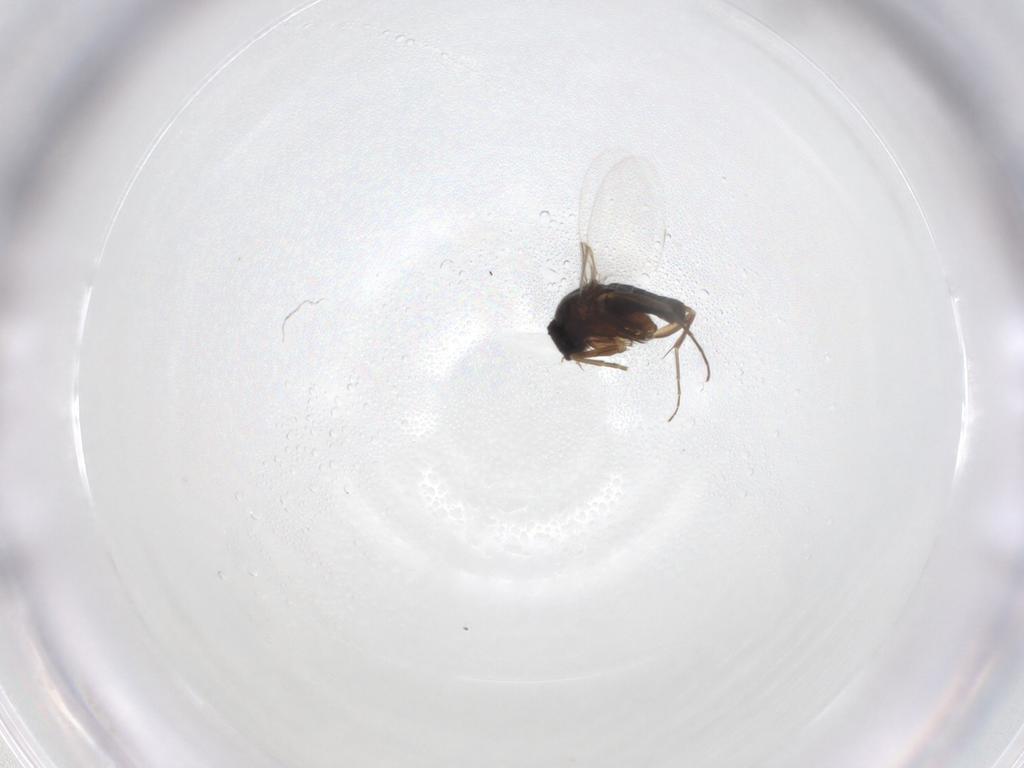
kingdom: Animalia
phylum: Arthropoda
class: Insecta
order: Diptera
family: Phoridae
